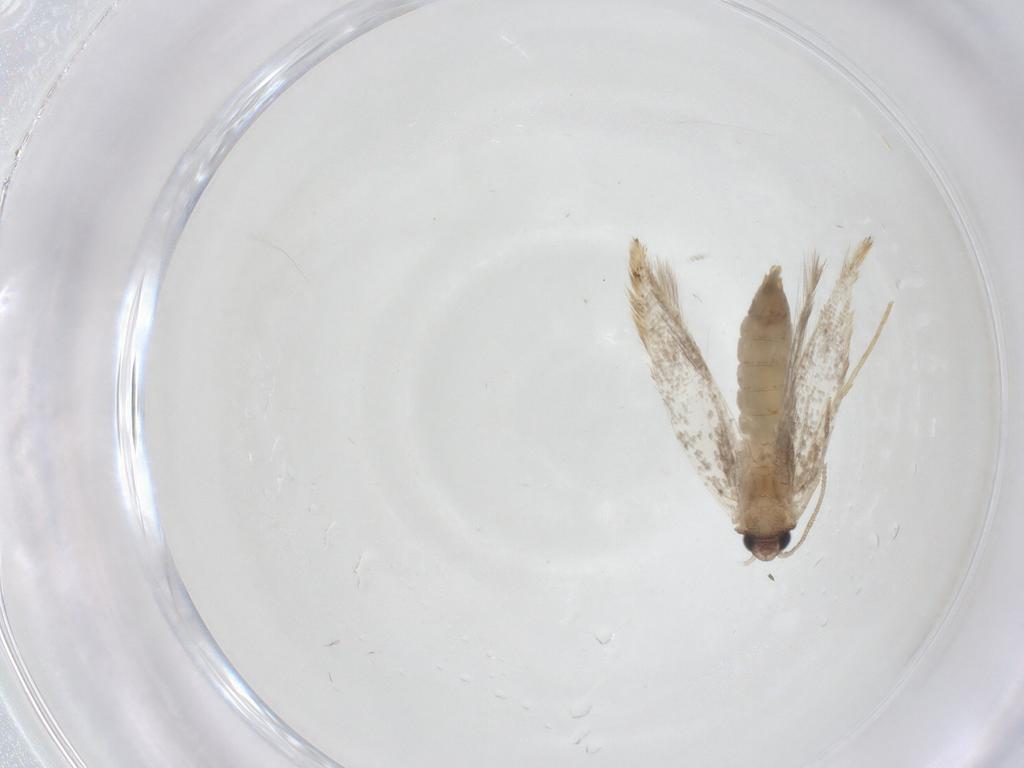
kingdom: Animalia
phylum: Arthropoda
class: Insecta
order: Lepidoptera
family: Tineidae
